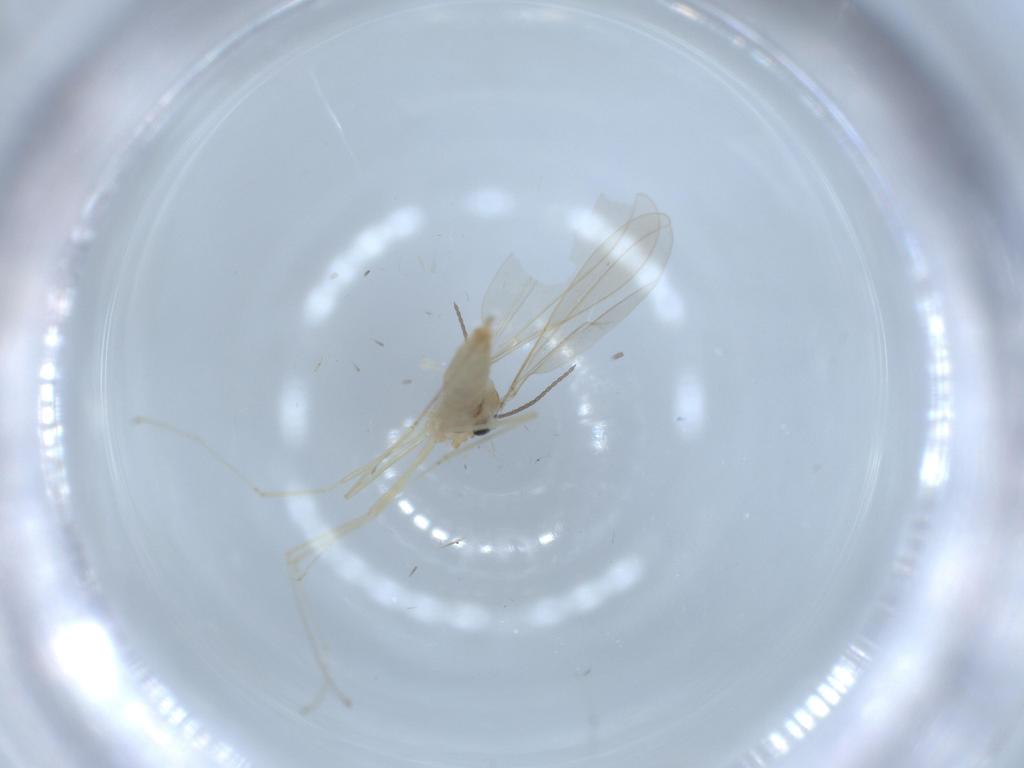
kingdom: Animalia
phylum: Arthropoda
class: Insecta
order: Diptera
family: Cecidomyiidae
